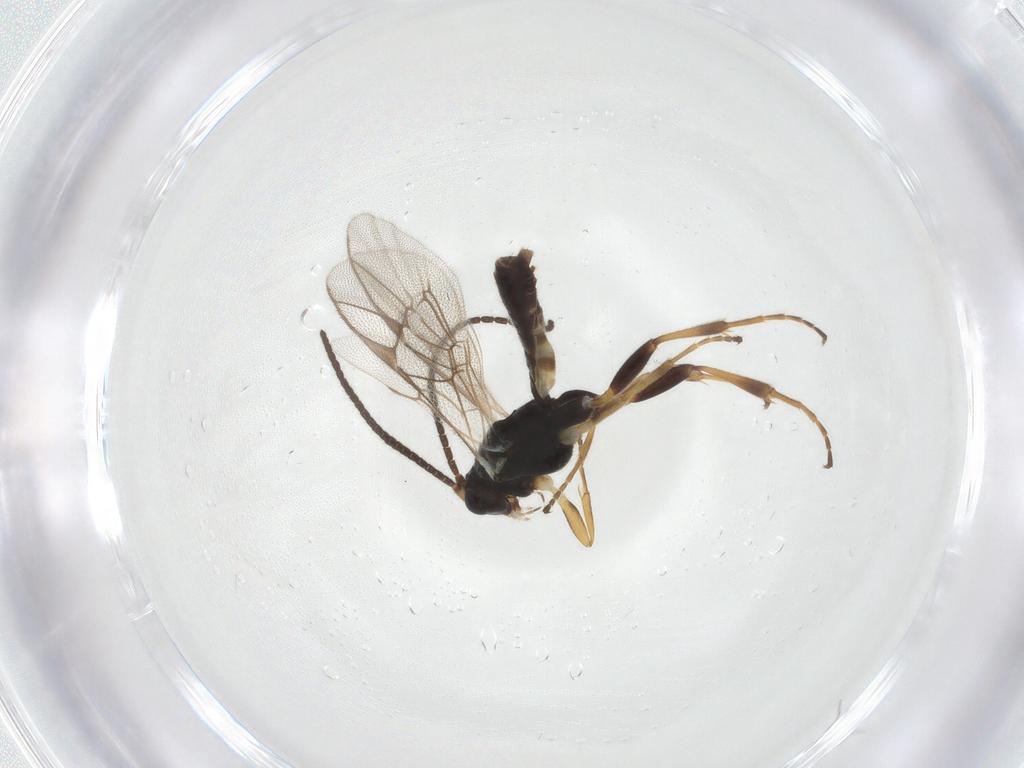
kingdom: Animalia
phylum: Arthropoda
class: Insecta
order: Hymenoptera
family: Ichneumonidae
